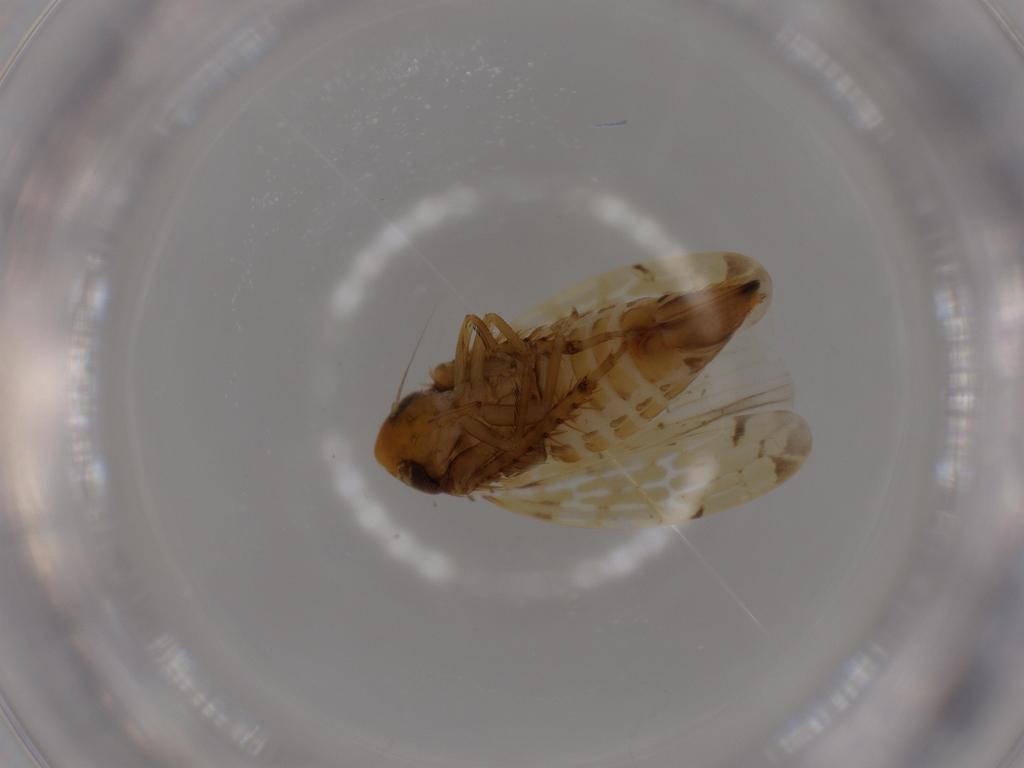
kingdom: Animalia
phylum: Arthropoda
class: Insecta
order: Hemiptera
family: Cicadellidae
